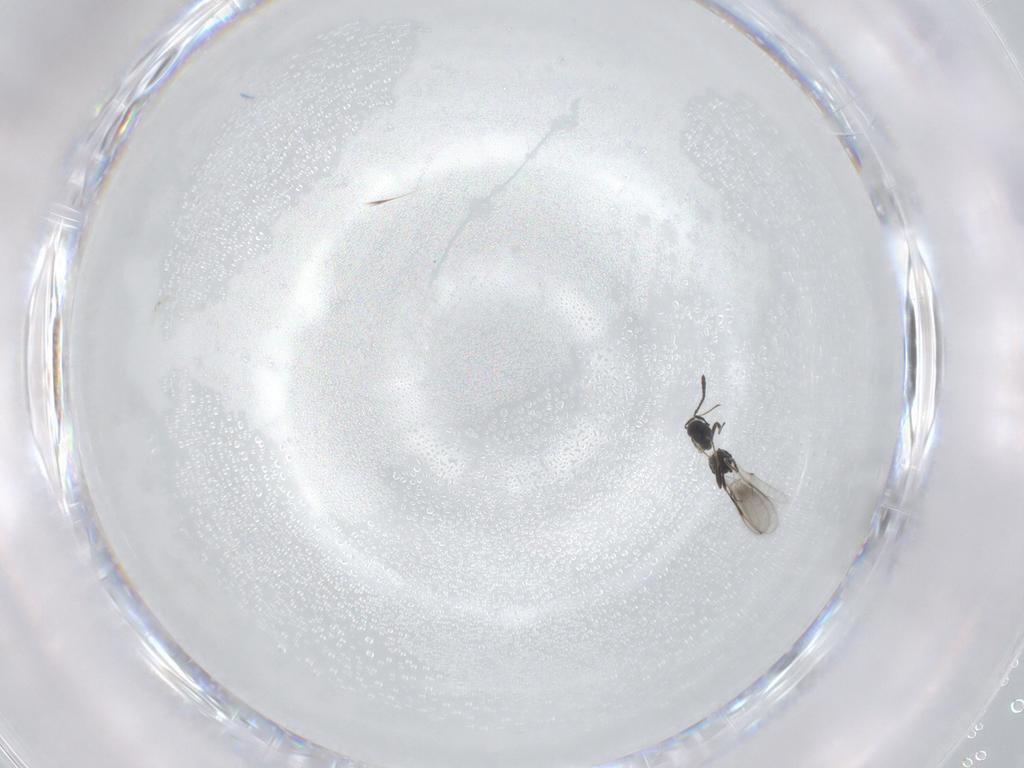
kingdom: Animalia
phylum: Arthropoda
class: Insecta
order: Hymenoptera
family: Scelionidae
